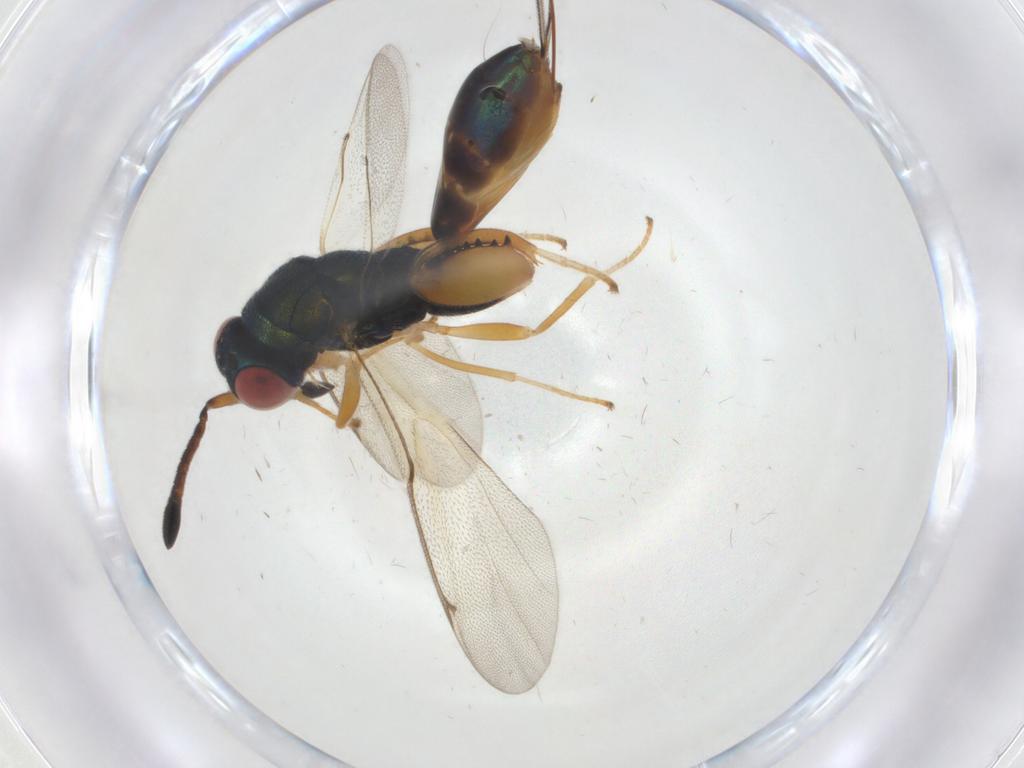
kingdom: Animalia
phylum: Arthropoda
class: Insecta
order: Hymenoptera
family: Torymidae
